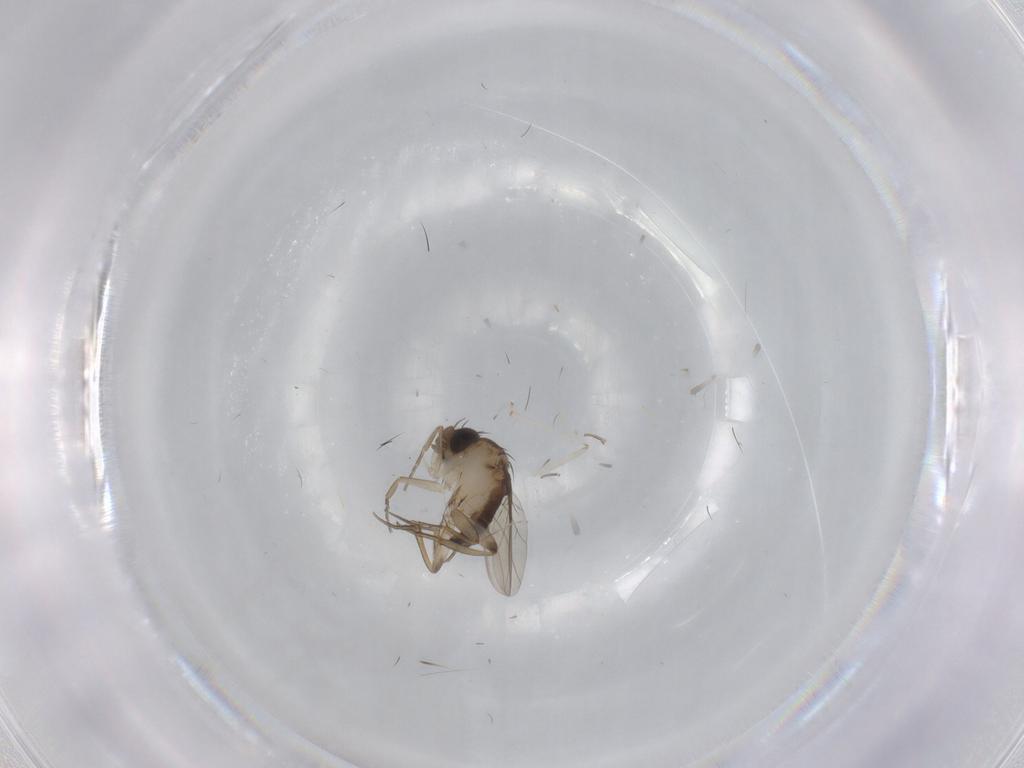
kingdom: Animalia
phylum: Arthropoda
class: Insecta
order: Diptera
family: Phoridae
